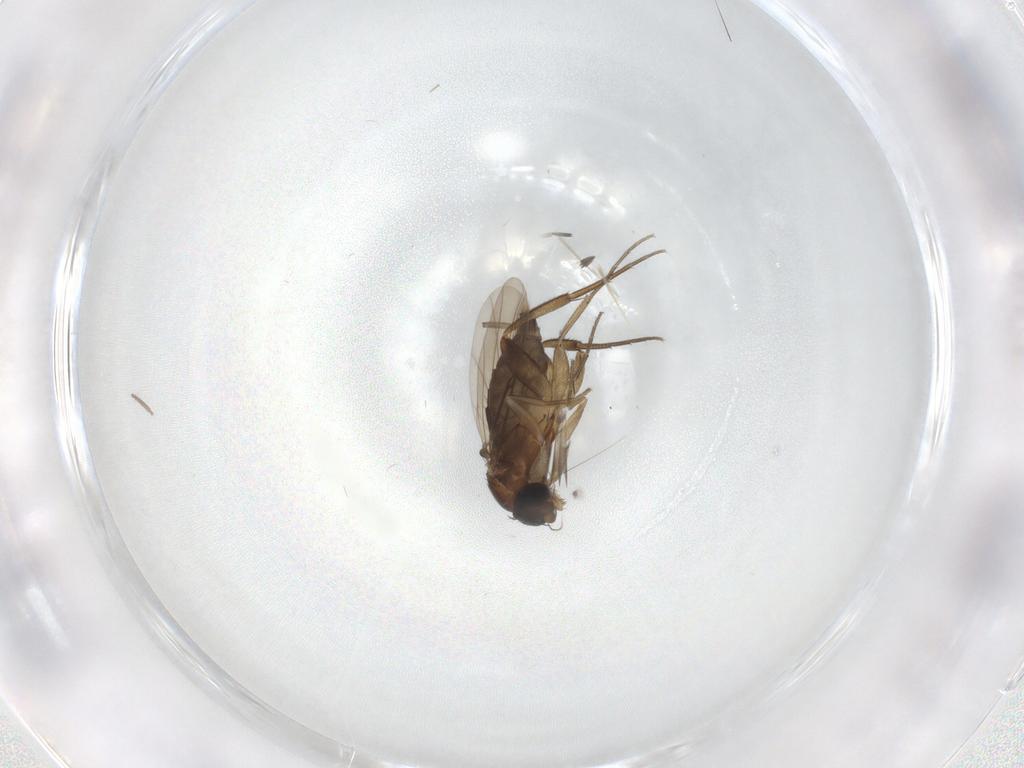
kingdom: Animalia
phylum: Arthropoda
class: Insecta
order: Diptera
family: Phoridae
